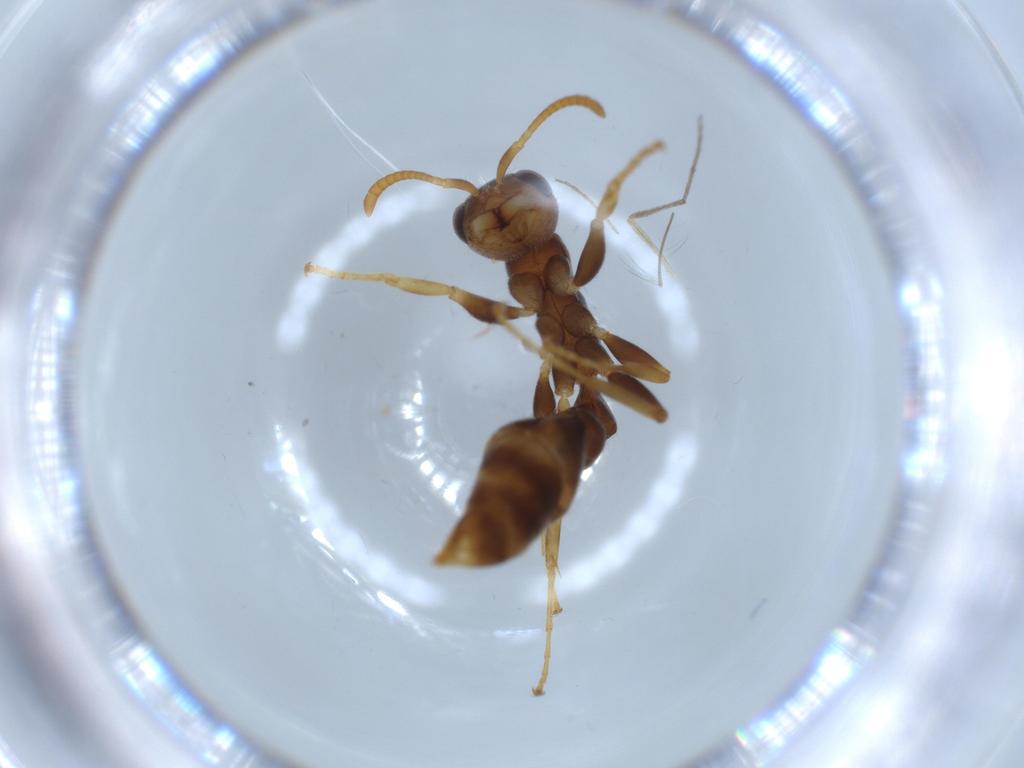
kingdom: Animalia
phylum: Arthropoda
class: Insecta
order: Hymenoptera
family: Formicidae
